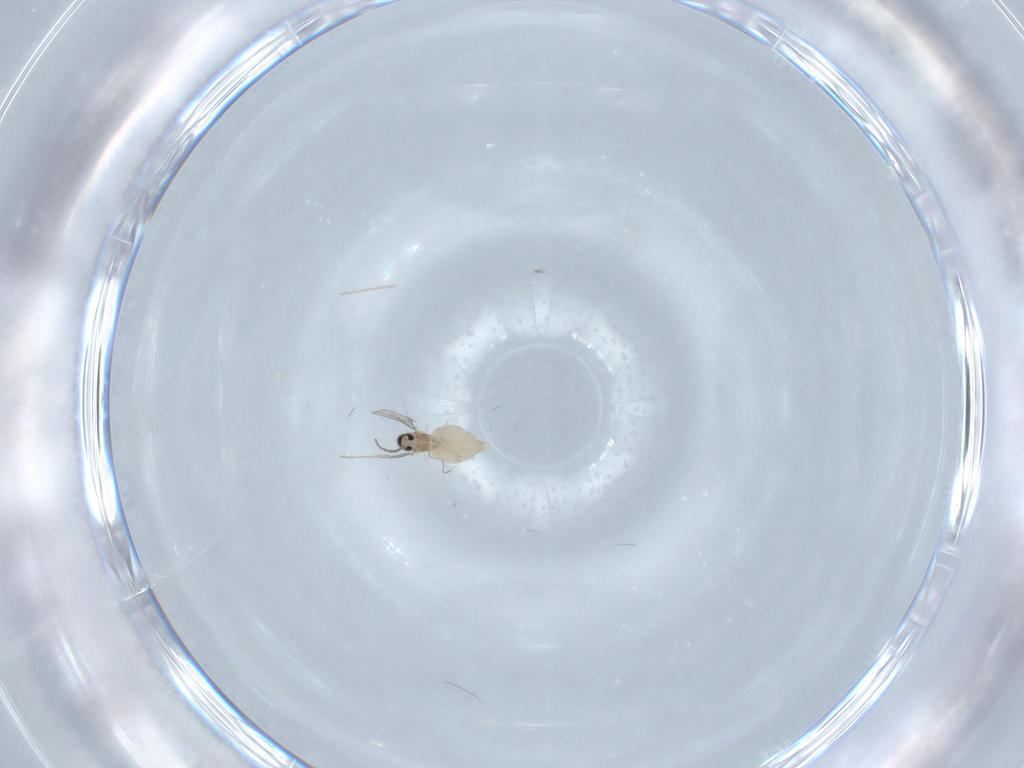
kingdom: Animalia
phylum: Arthropoda
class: Insecta
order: Diptera
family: Cecidomyiidae
